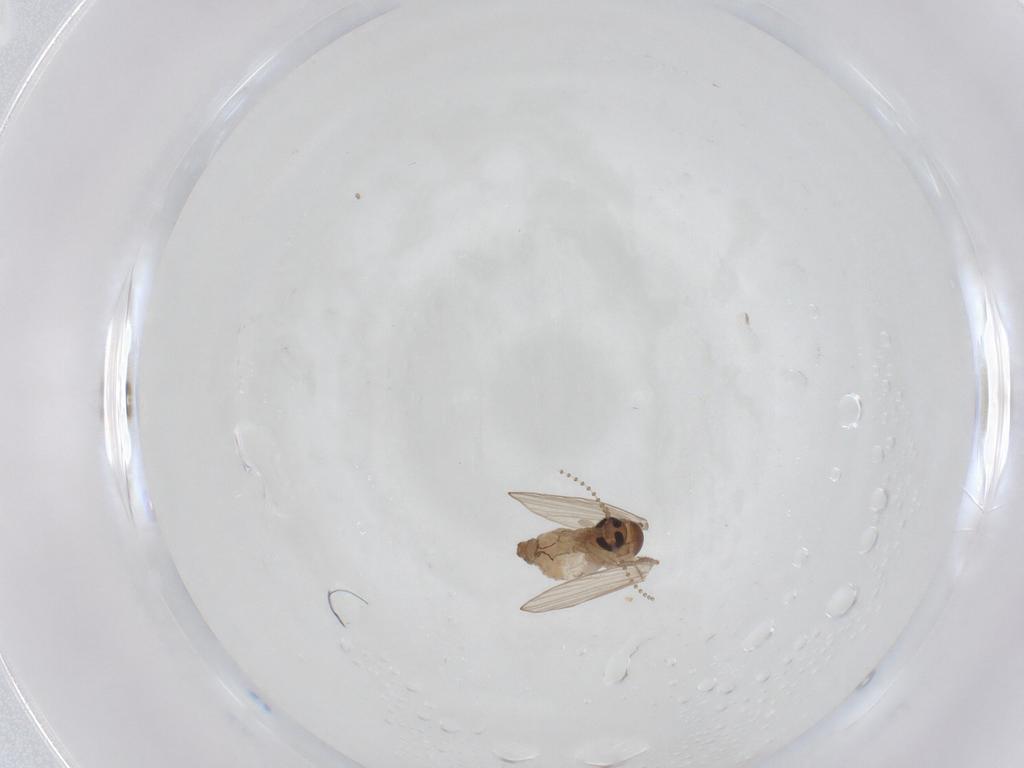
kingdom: Animalia
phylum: Arthropoda
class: Insecta
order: Diptera
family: Psychodidae
